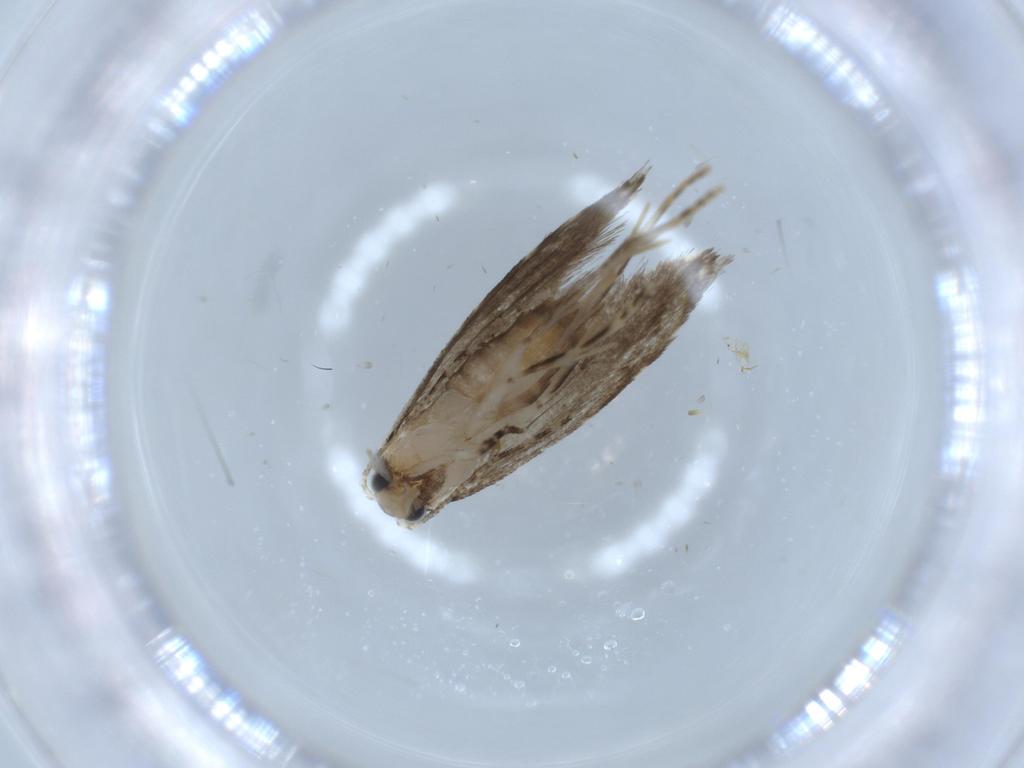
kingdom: Animalia
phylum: Arthropoda
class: Insecta
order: Lepidoptera
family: Tineidae
